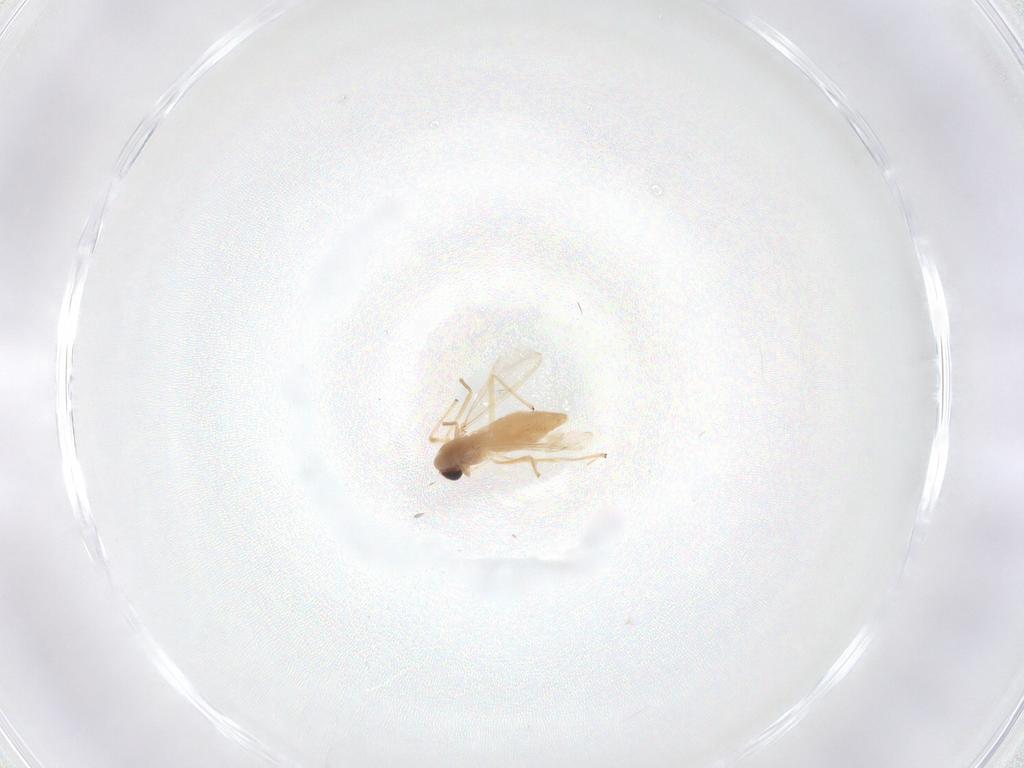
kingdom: Animalia
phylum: Arthropoda
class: Insecta
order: Diptera
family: Chironomidae
